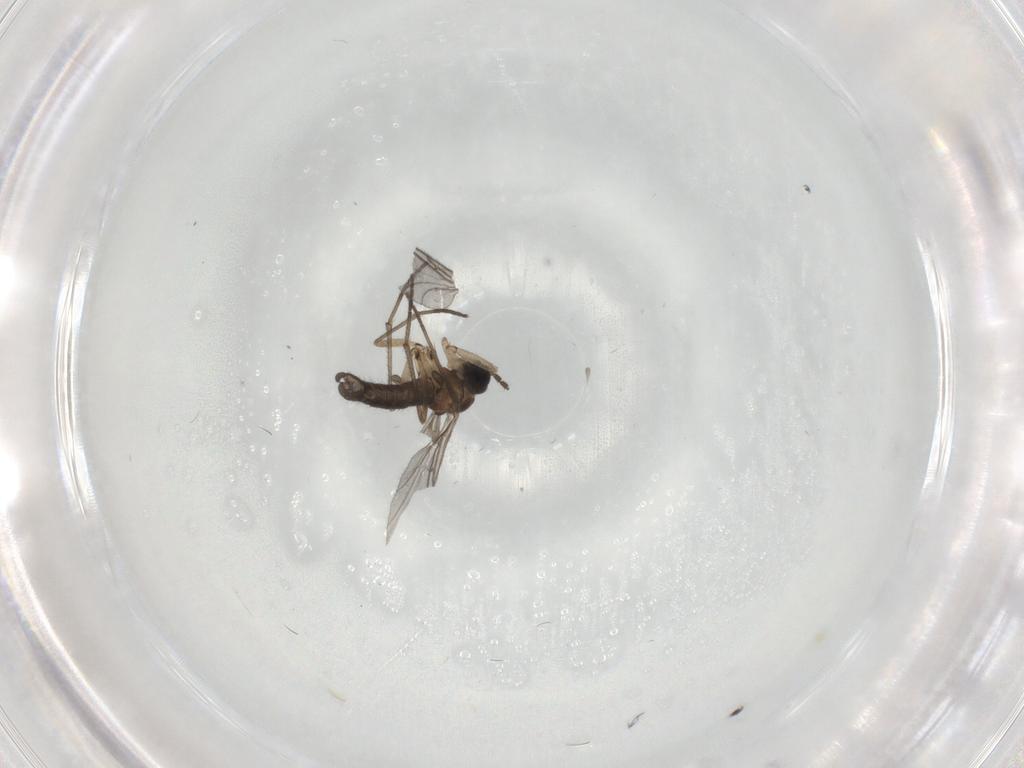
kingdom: Animalia
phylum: Arthropoda
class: Insecta
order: Diptera
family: Sciaridae
